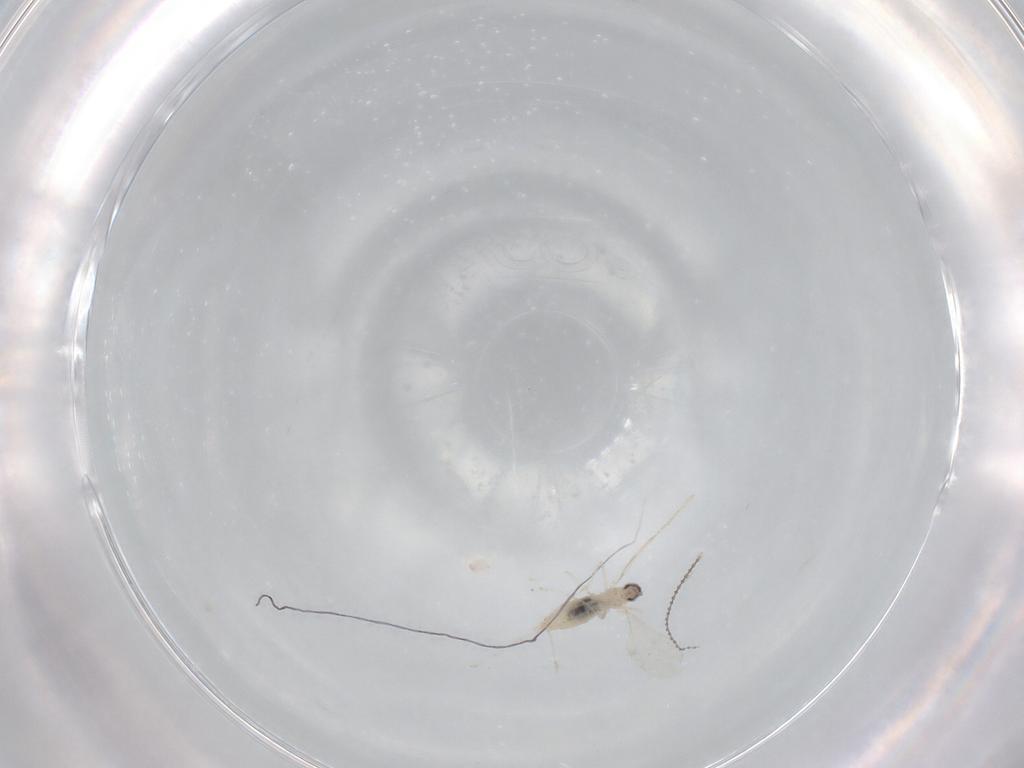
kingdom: Animalia
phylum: Arthropoda
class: Insecta
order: Diptera
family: Cecidomyiidae
